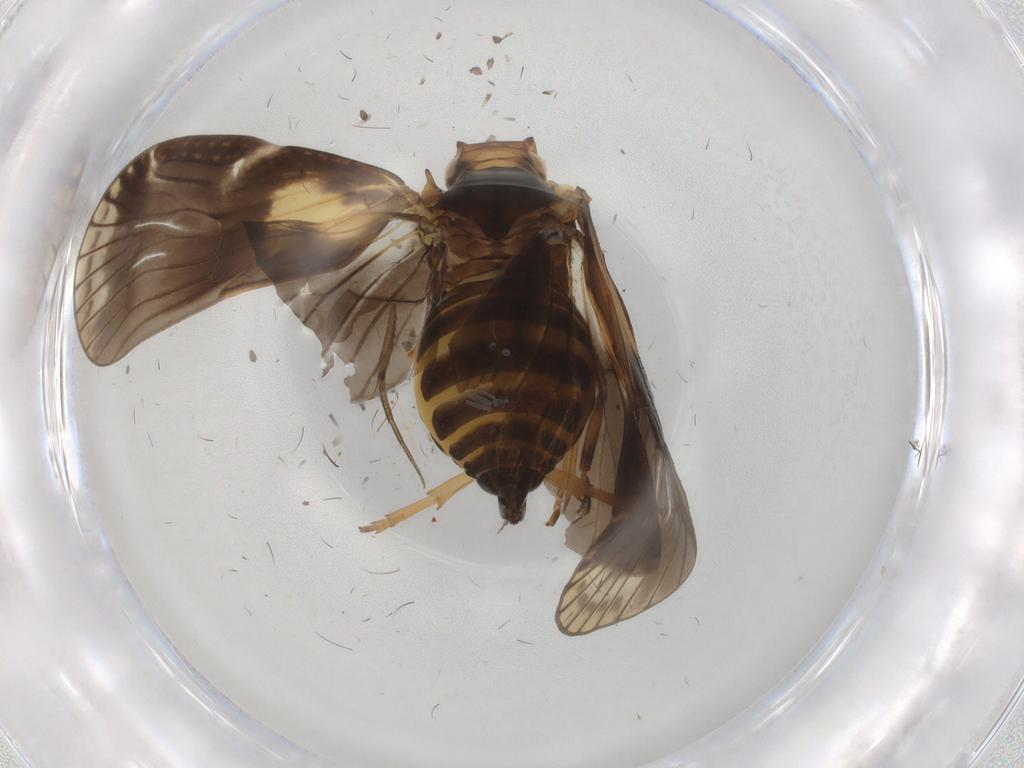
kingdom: Animalia
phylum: Arthropoda
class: Insecta
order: Hemiptera
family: Cixiidae
